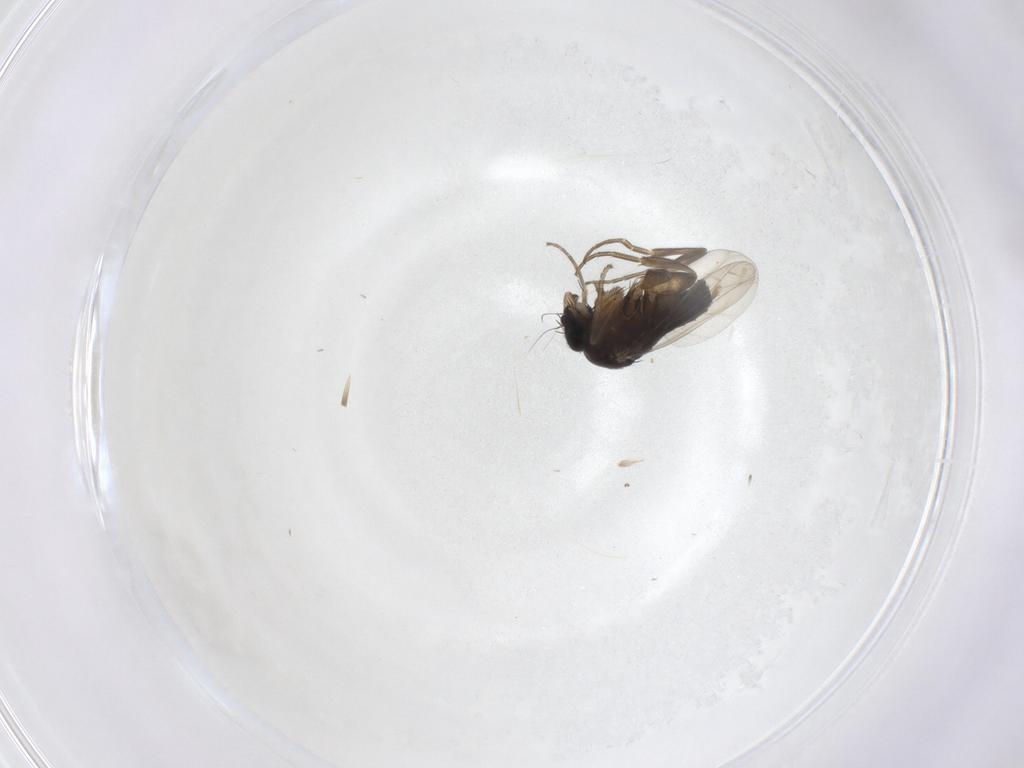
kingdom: Animalia
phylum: Arthropoda
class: Insecta
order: Diptera
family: Phoridae
